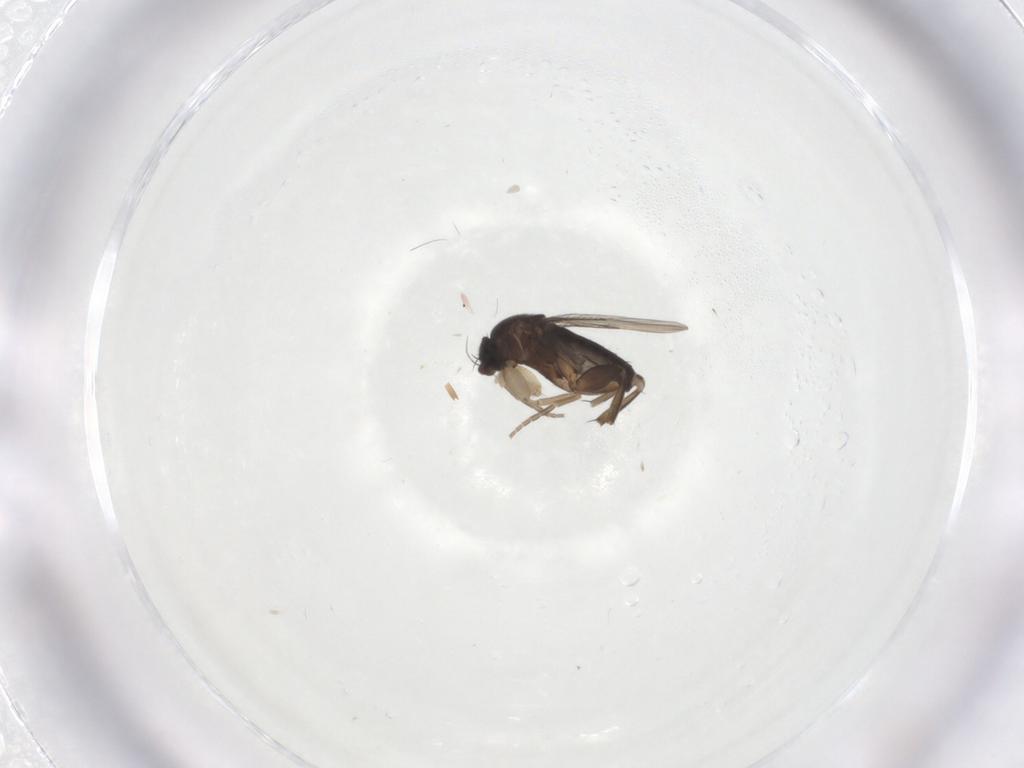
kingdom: Animalia
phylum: Arthropoda
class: Insecta
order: Diptera
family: Phoridae
